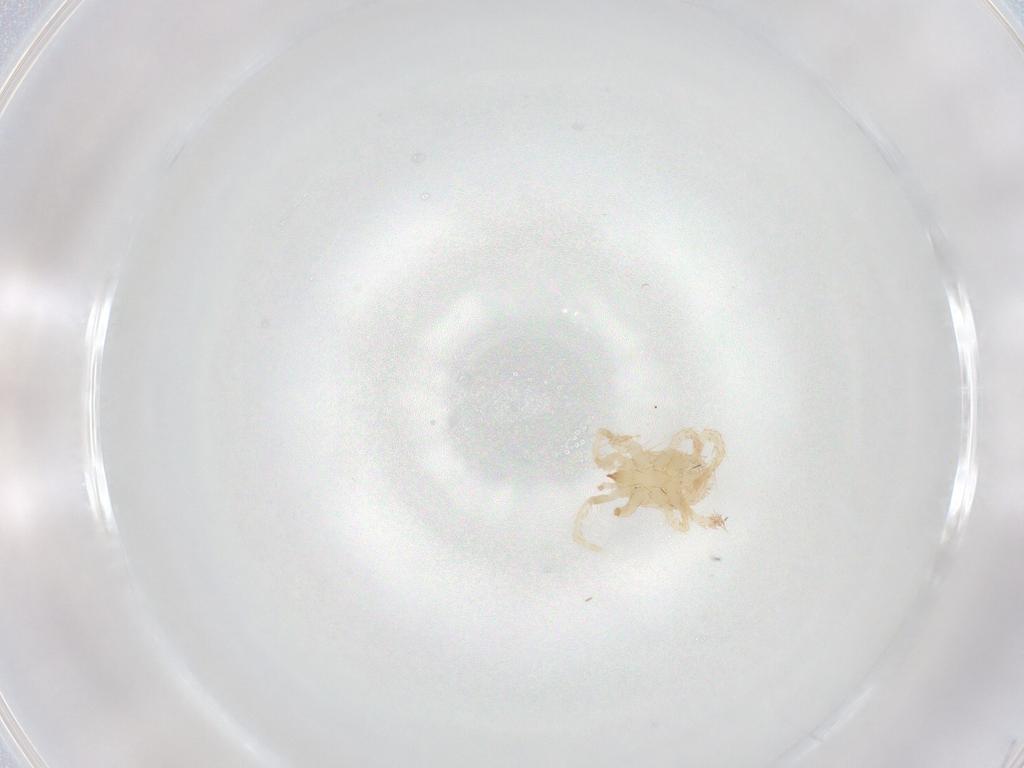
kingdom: Animalia
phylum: Arthropoda
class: Arachnida
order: Mesostigmata
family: Parasitidae
